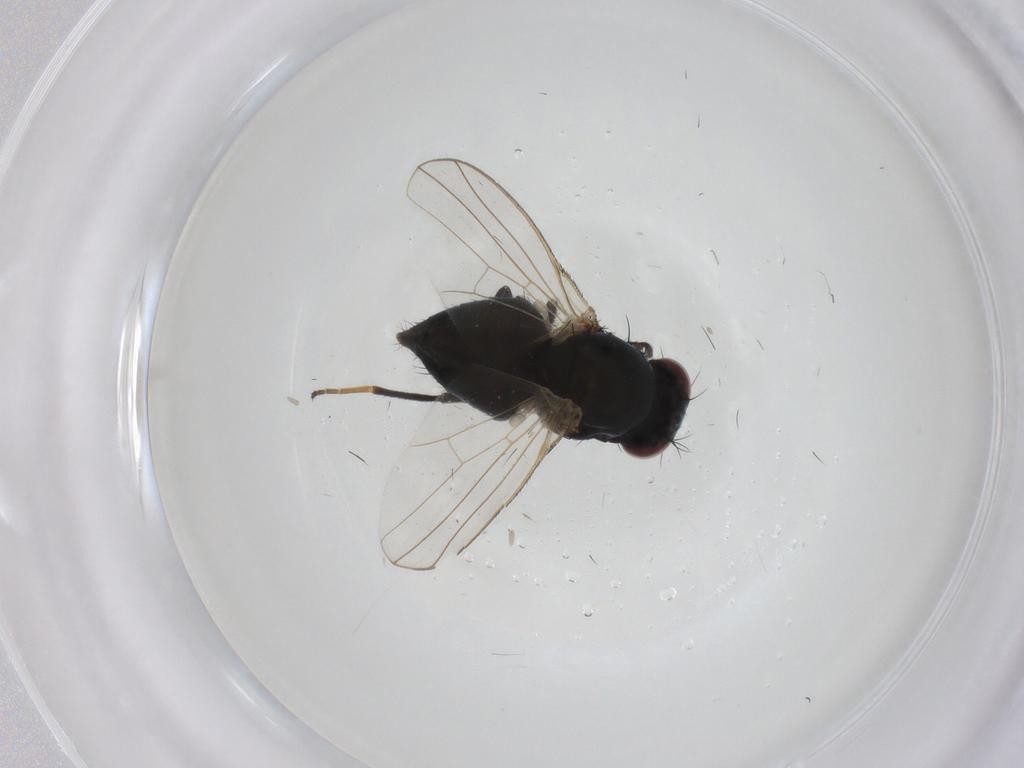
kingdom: Animalia
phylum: Arthropoda
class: Insecta
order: Diptera
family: Carnidae
